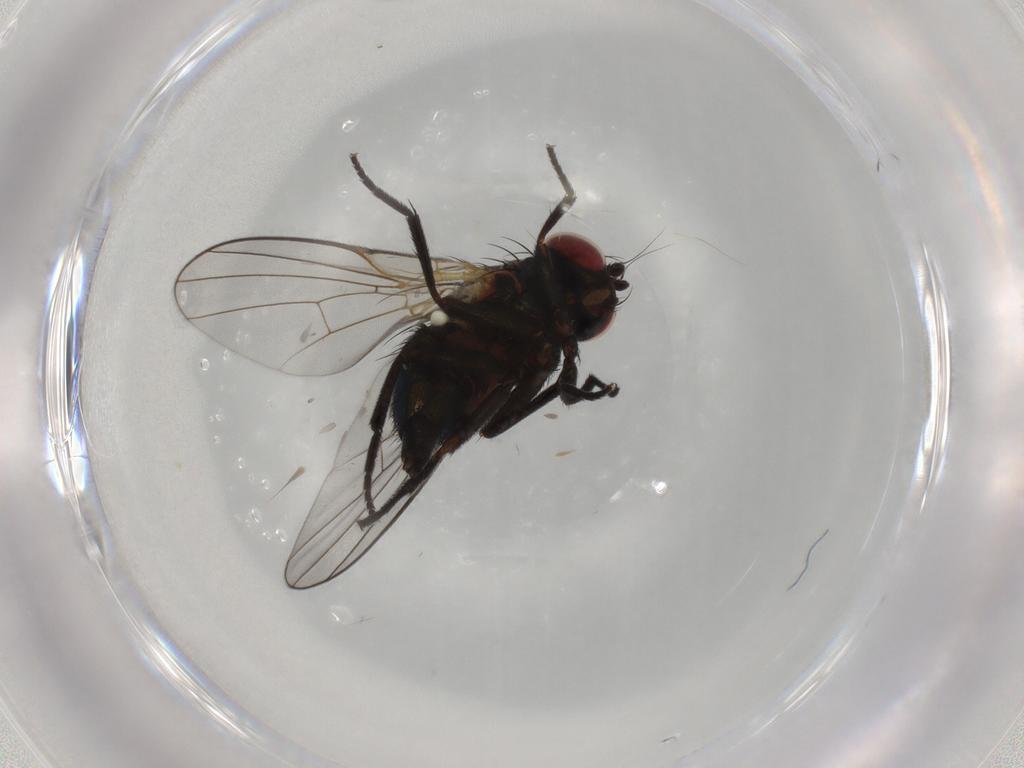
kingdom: Animalia
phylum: Arthropoda
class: Insecta
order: Diptera
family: Agromyzidae
